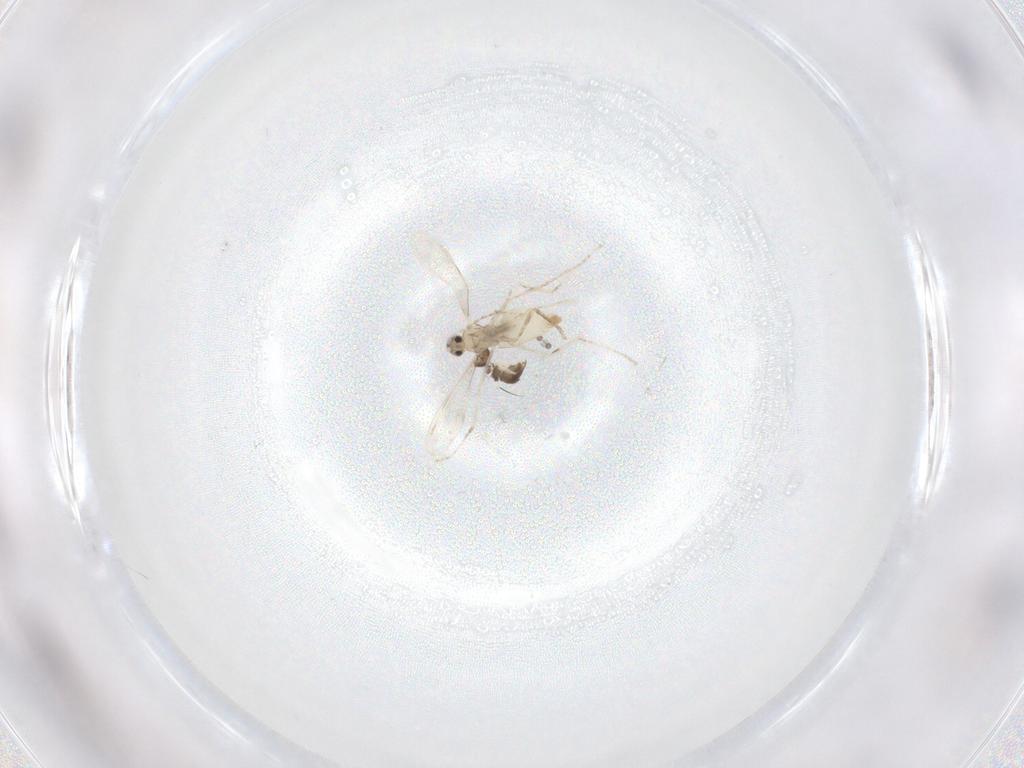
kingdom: Animalia
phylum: Arthropoda
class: Insecta
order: Diptera
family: Cecidomyiidae
